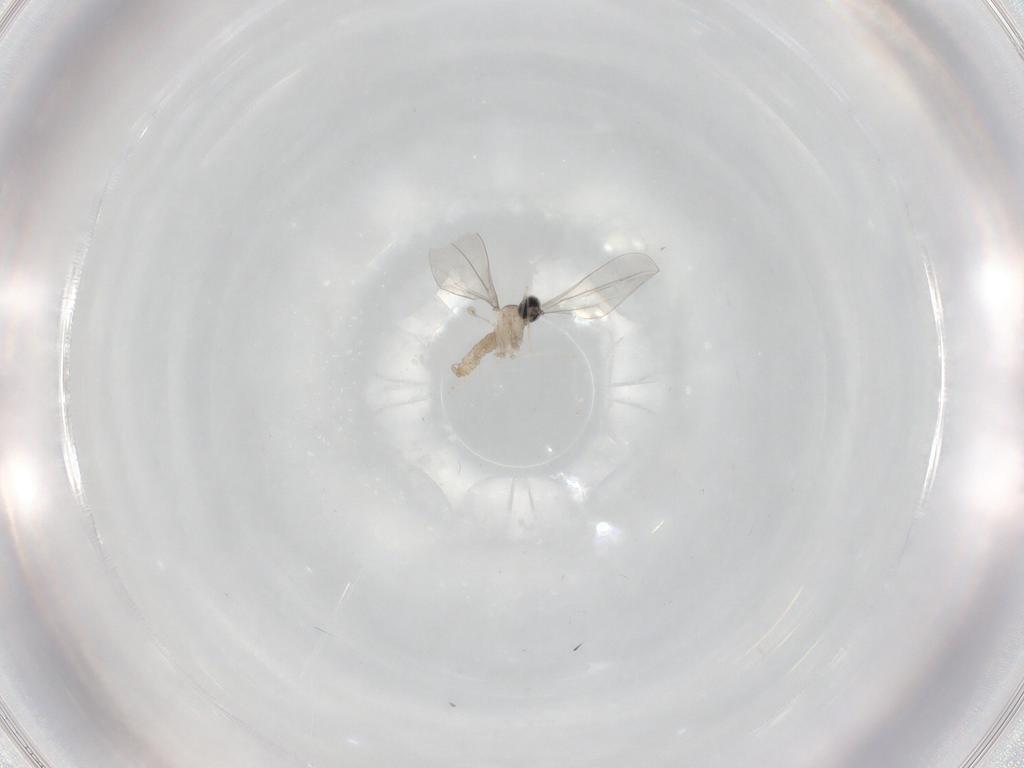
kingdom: Animalia
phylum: Arthropoda
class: Insecta
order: Diptera
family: Cecidomyiidae
